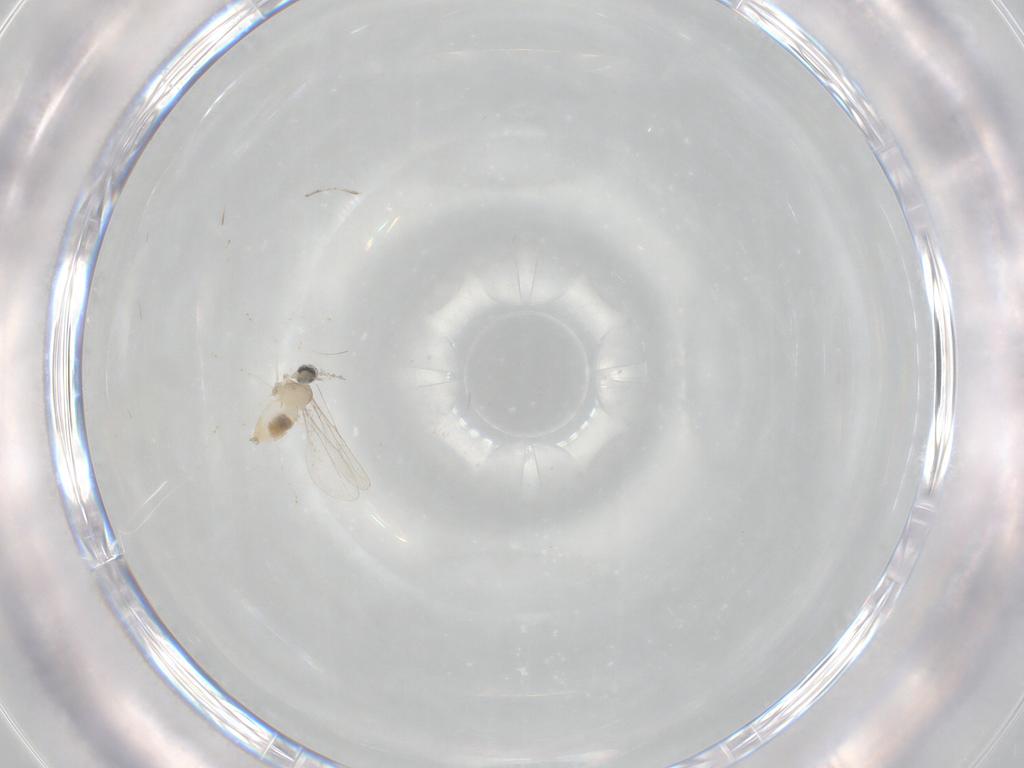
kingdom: Animalia
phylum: Arthropoda
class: Insecta
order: Diptera
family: Cecidomyiidae
